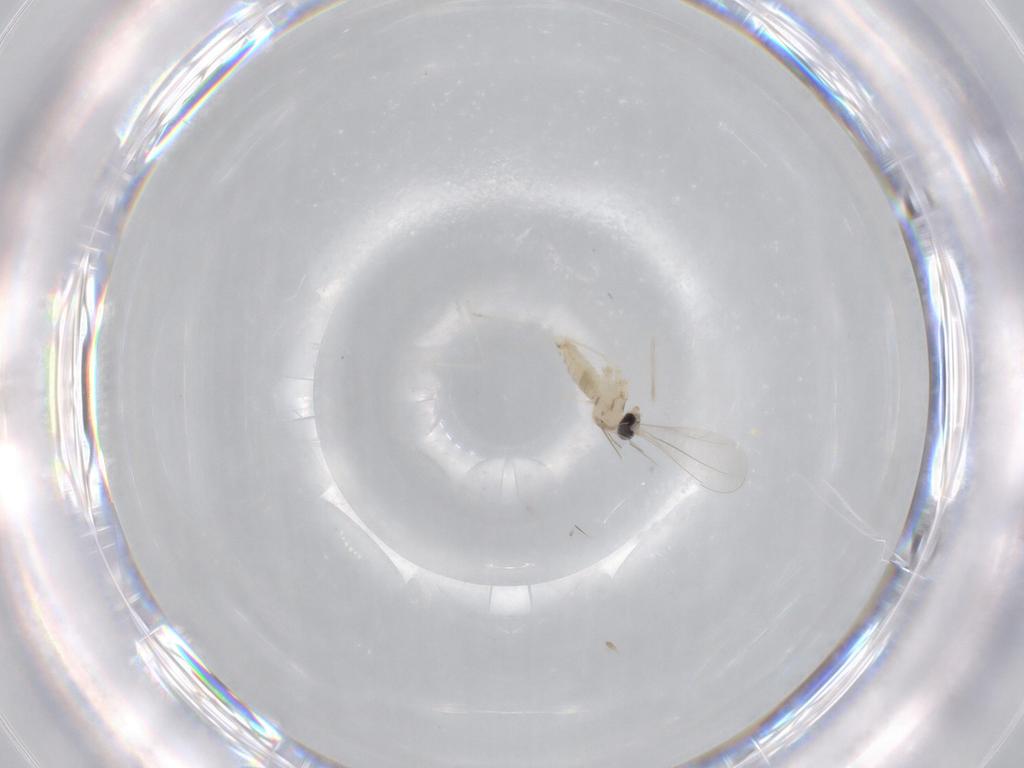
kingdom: Animalia
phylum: Arthropoda
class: Insecta
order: Diptera
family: Cecidomyiidae
